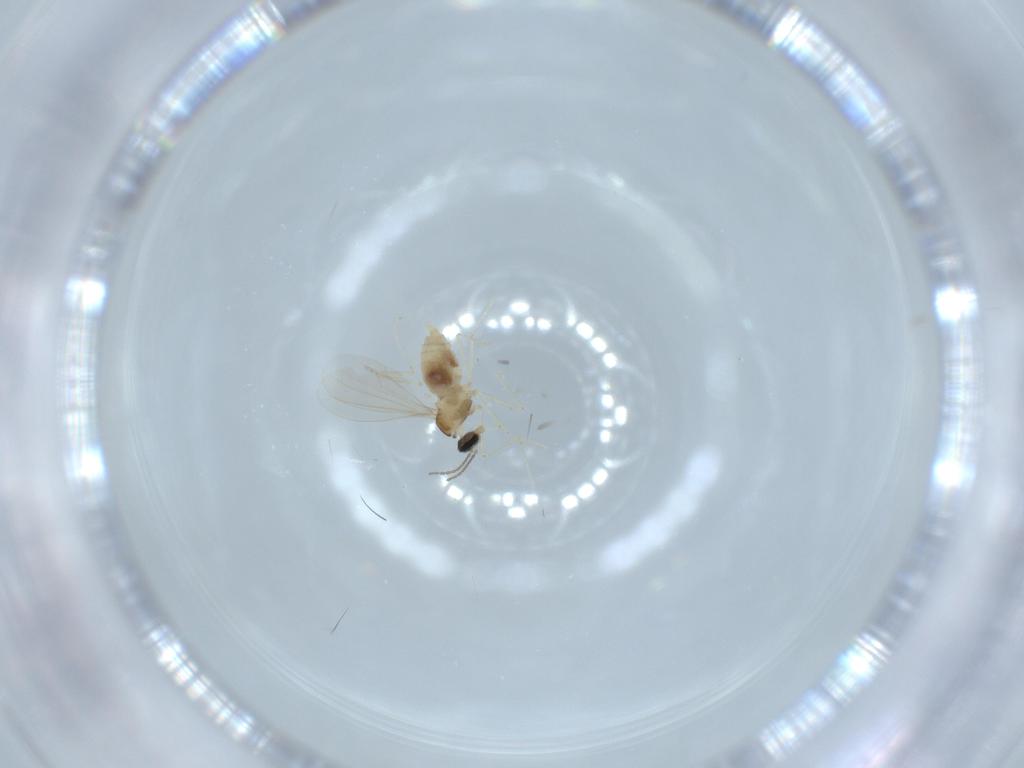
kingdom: Animalia
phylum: Arthropoda
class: Insecta
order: Diptera
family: Cecidomyiidae
